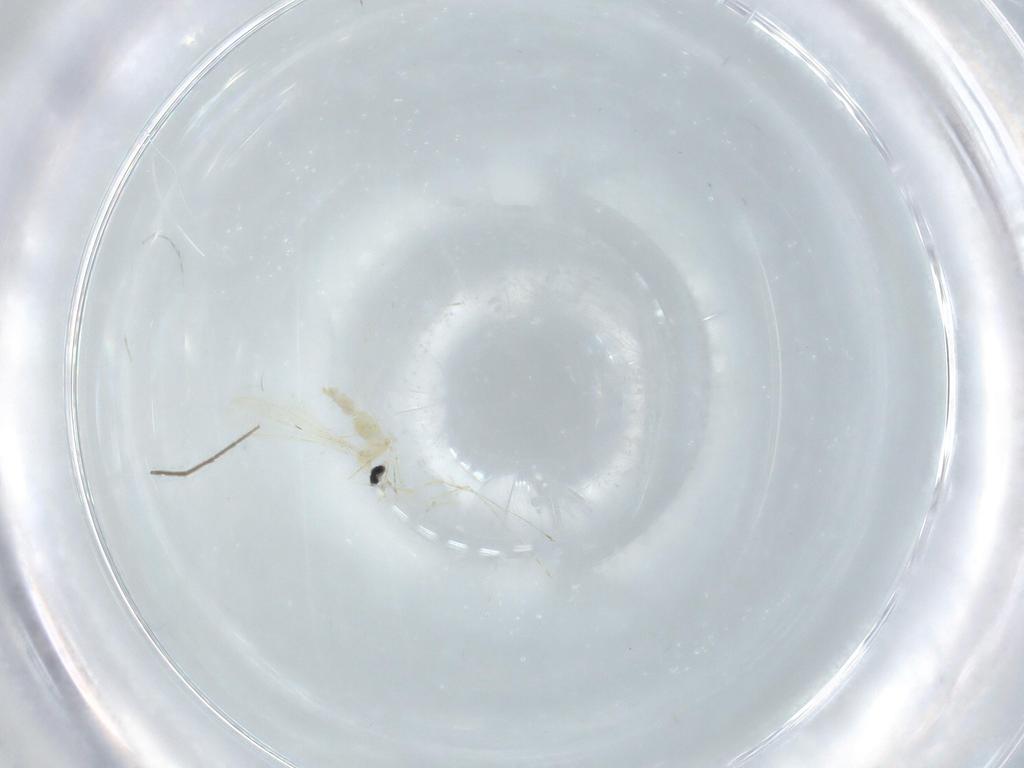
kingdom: Animalia
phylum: Arthropoda
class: Insecta
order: Diptera
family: Chironomidae
